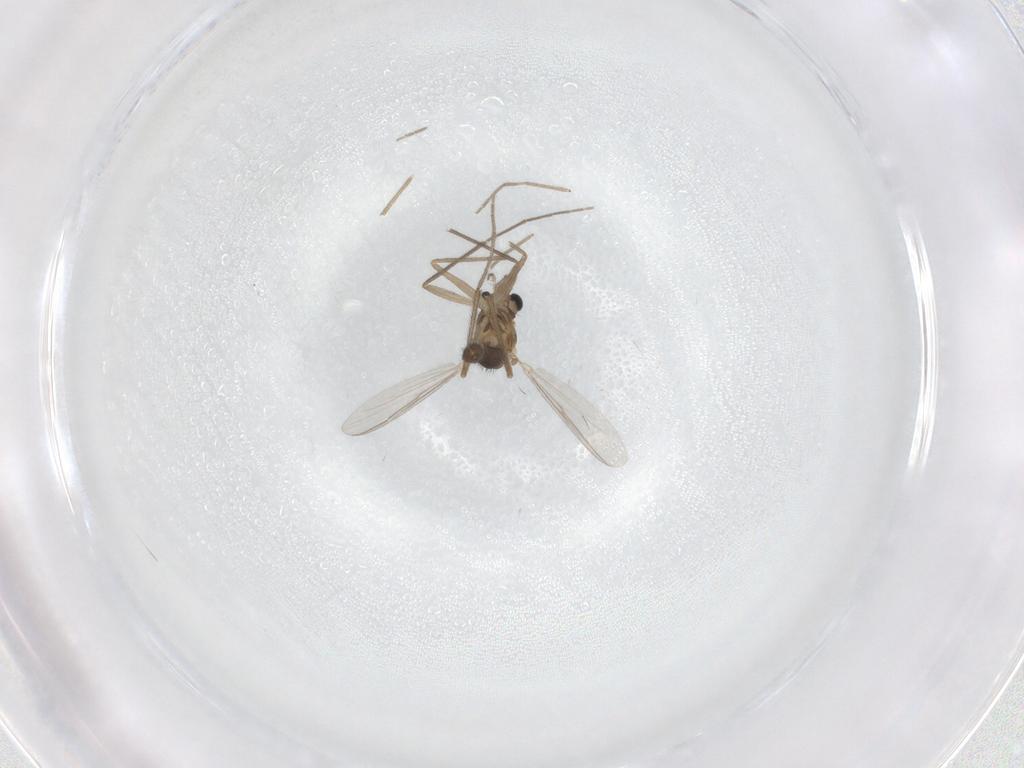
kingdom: Animalia
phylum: Arthropoda
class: Insecta
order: Diptera
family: Chironomidae
